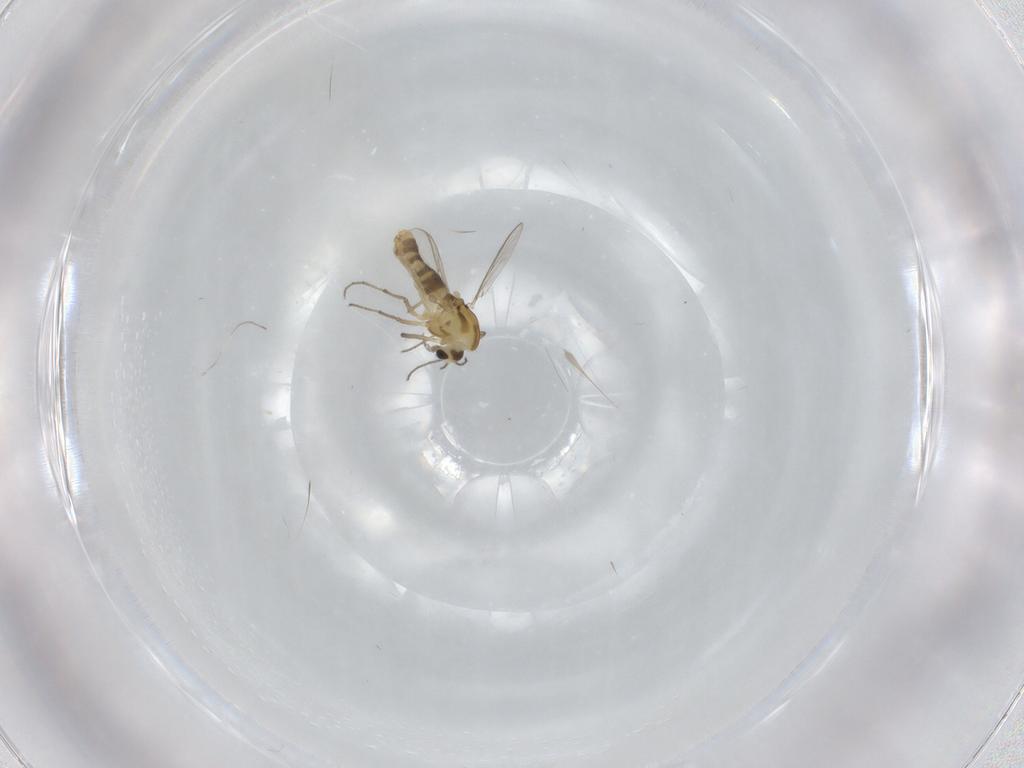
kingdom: Animalia
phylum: Arthropoda
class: Insecta
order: Diptera
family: Chironomidae
